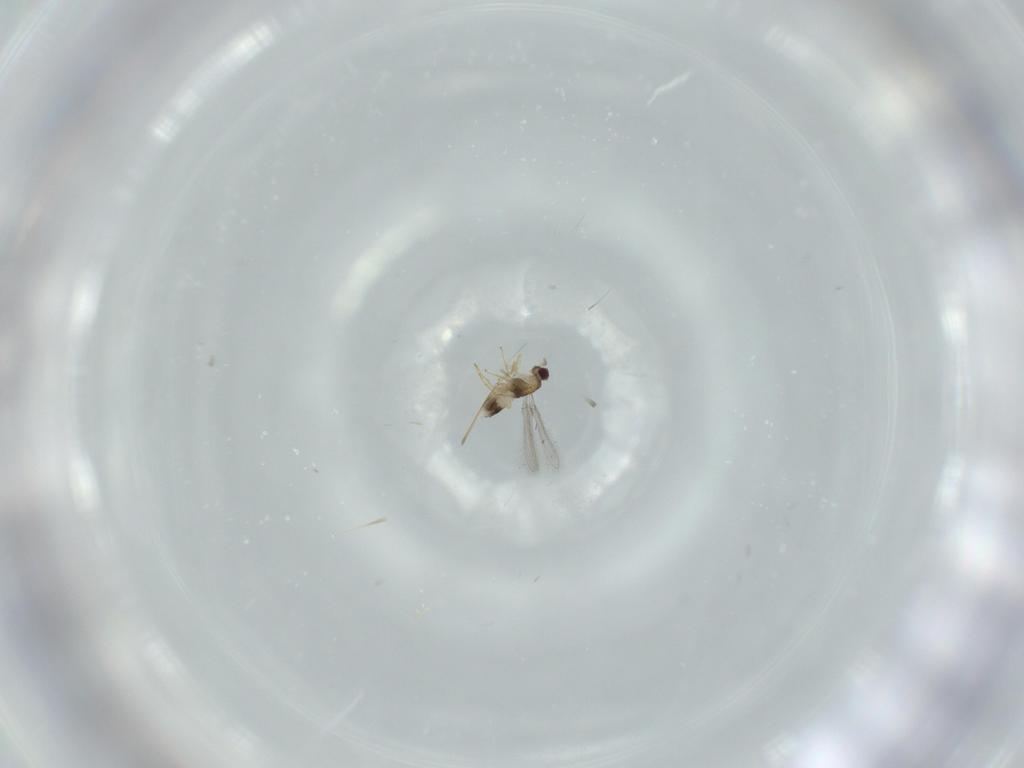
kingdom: Animalia
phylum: Arthropoda
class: Insecta
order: Hymenoptera
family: Mymaridae
